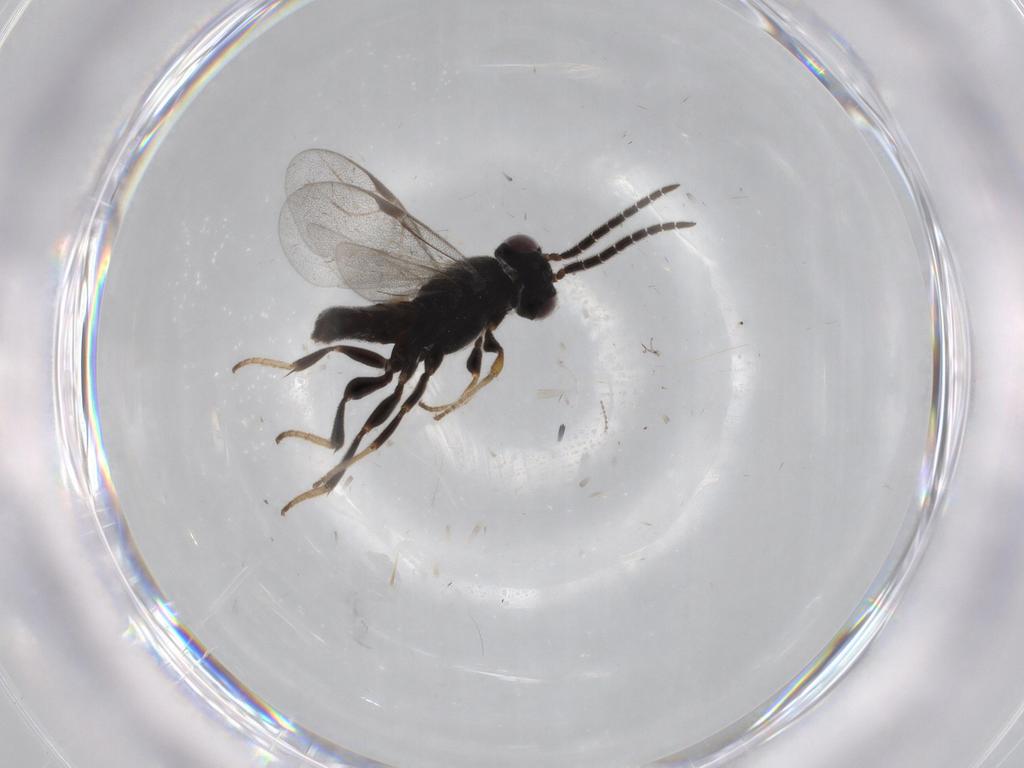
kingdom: Animalia
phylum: Arthropoda
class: Insecta
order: Hymenoptera
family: Dryinidae
